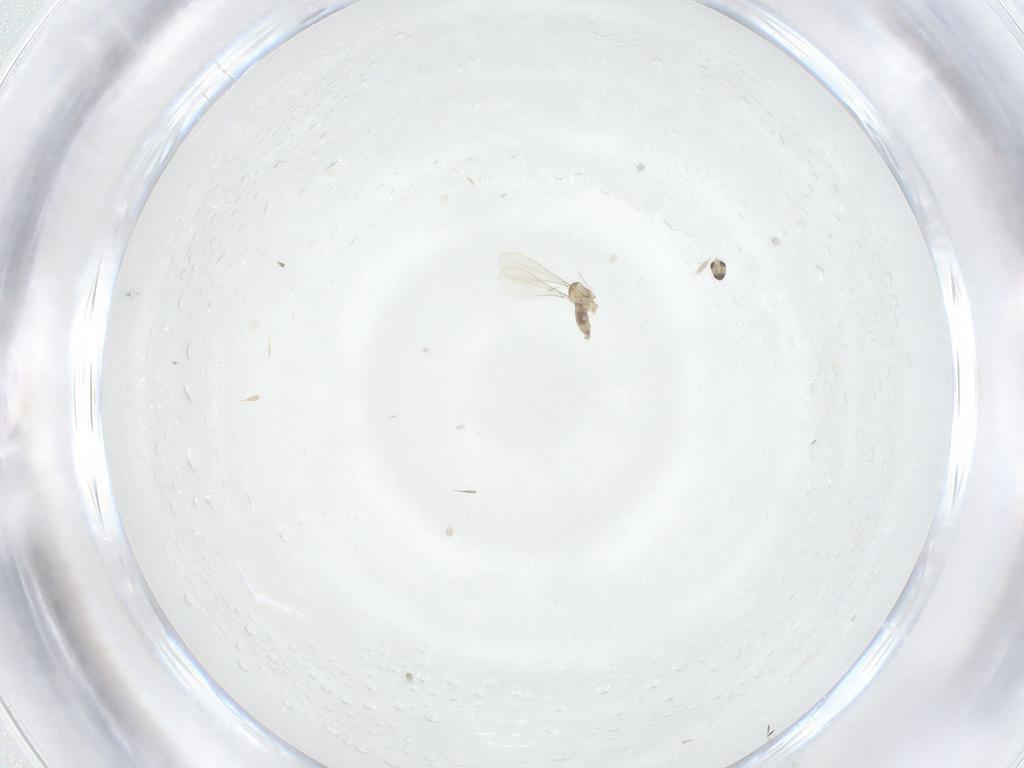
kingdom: Animalia
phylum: Arthropoda
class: Insecta
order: Diptera
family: Cecidomyiidae
